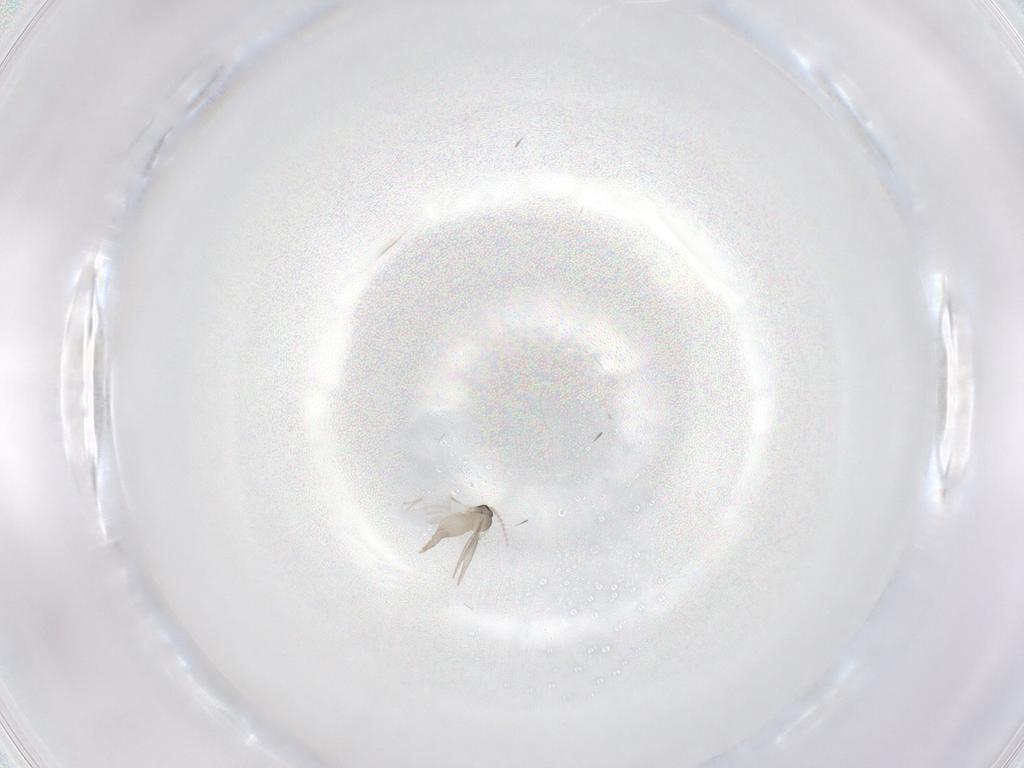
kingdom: Animalia
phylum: Arthropoda
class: Insecta
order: Diptera
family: Cecidomyiidae
